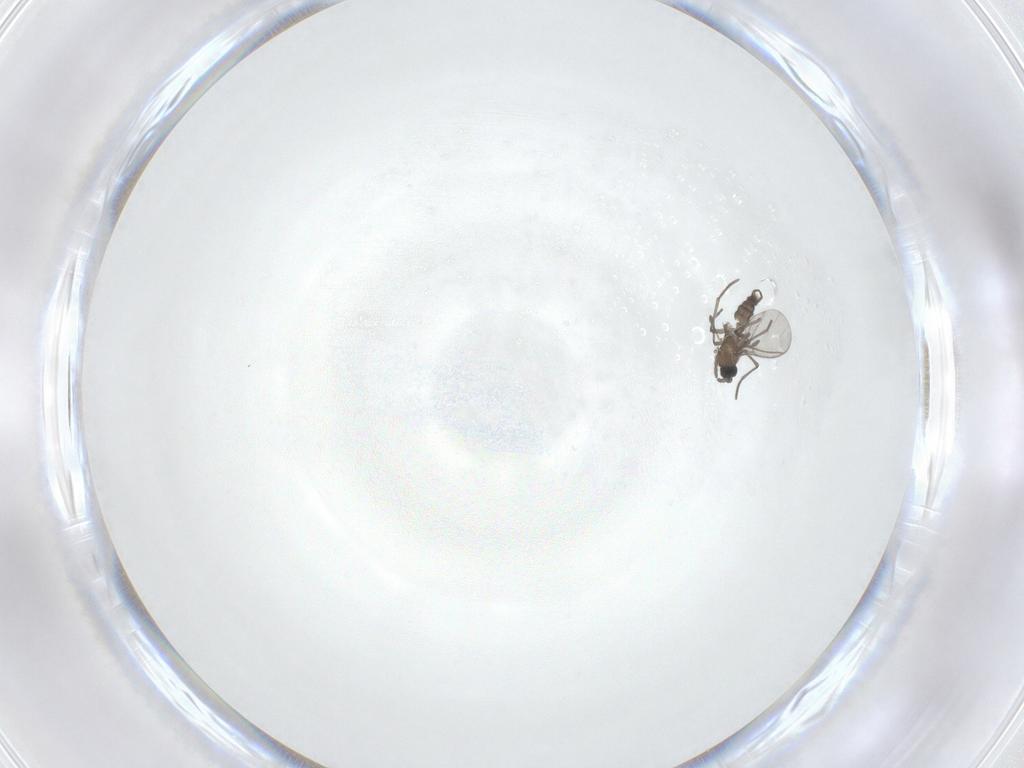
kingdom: Animalia
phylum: Arthropoda
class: Insecta
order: Diptera
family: Sciaridae
